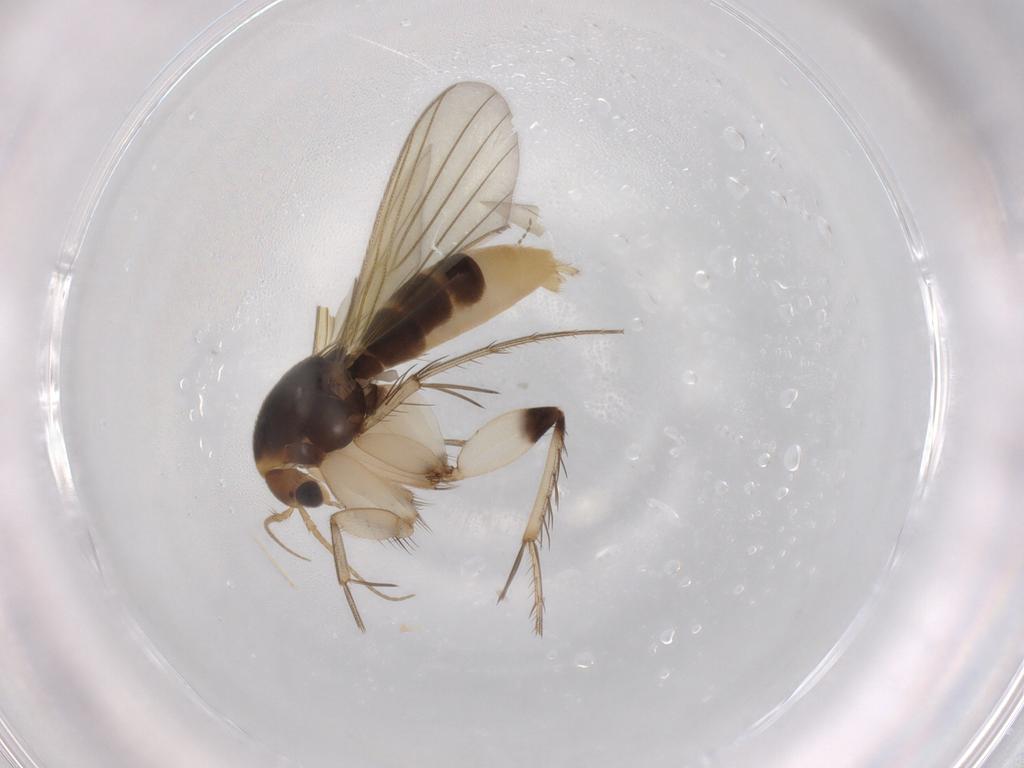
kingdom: Animalia
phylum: Arthropoda
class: Insecta
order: Diptera
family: Mycetophilidae
